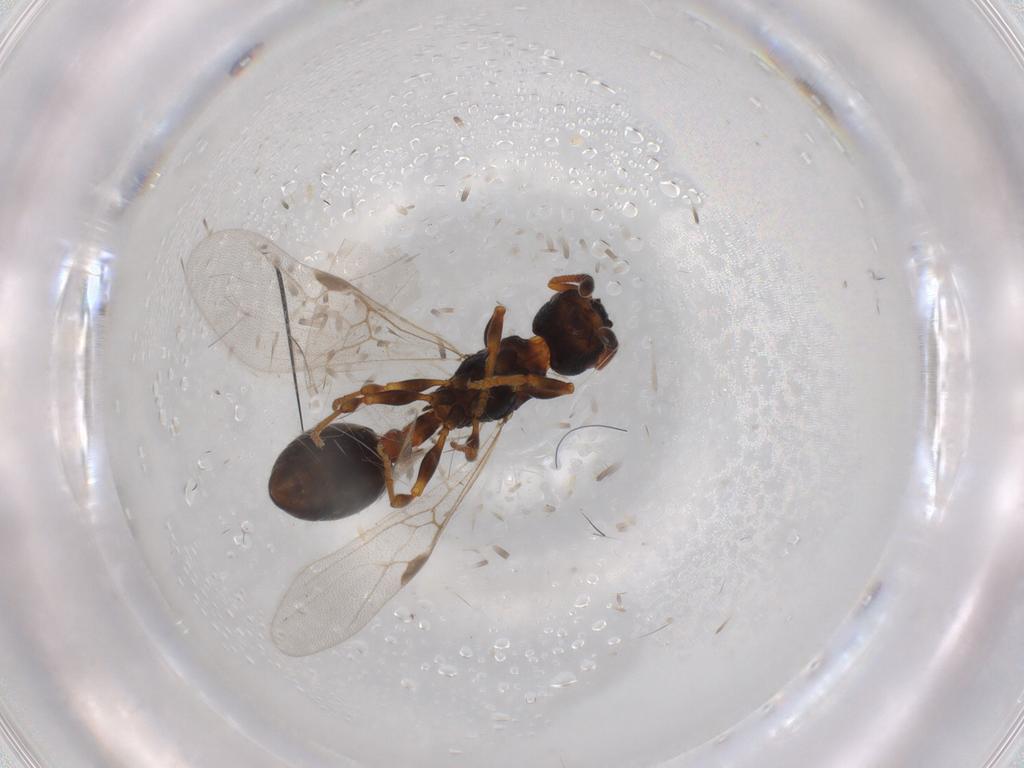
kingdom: Animalia
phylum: Arthropoda
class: Insecta
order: Hymenoptera
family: Formicidae
